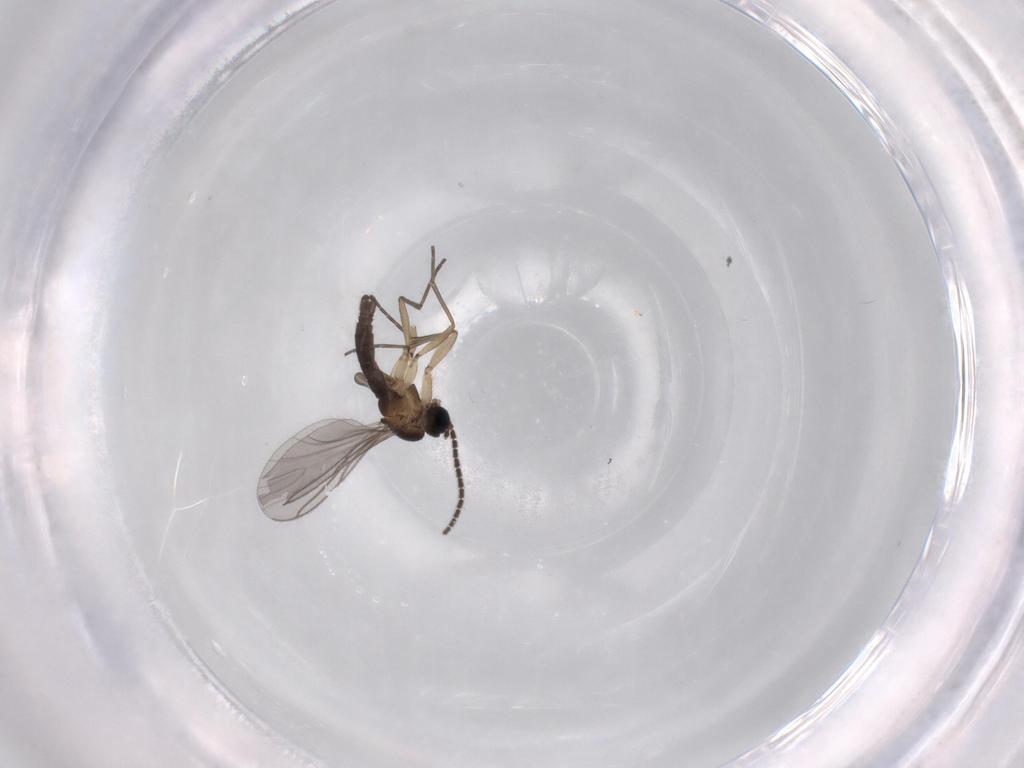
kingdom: Animalia
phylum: Arthropoda
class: Insecta
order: Diptera
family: Sciaridae
